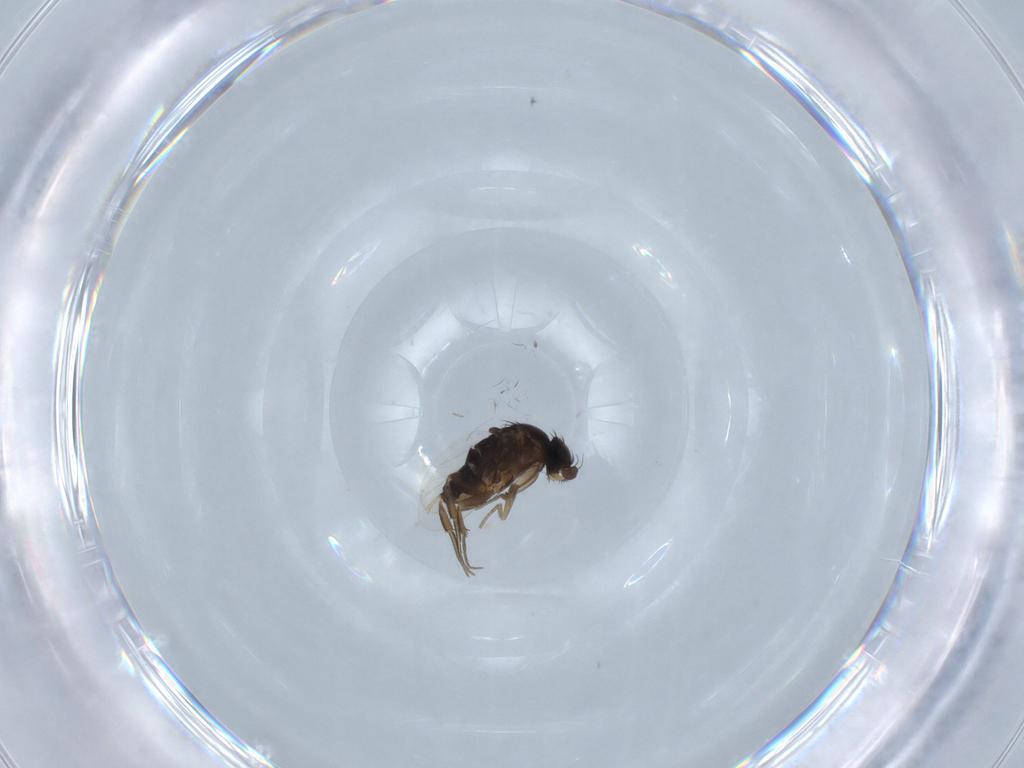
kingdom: Animalia
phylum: Arthropoda
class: Insecta
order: Diptera
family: Phoridae
